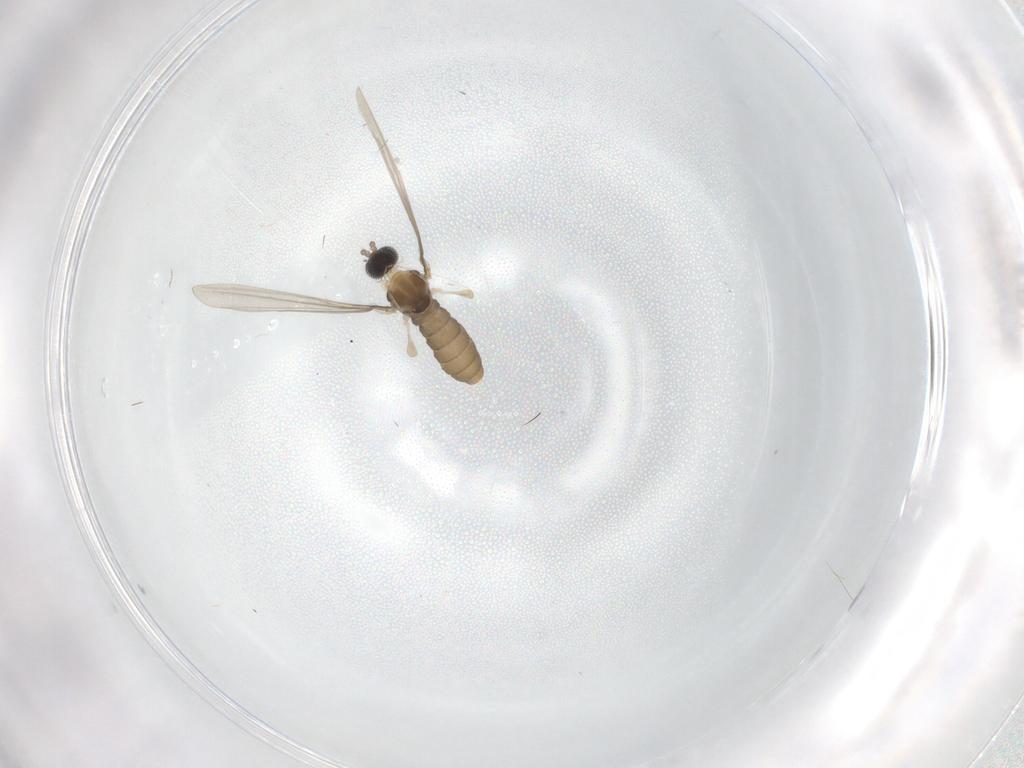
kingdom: Animalia
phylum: Arthropoda
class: Insecta
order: Diptera
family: Cecidomyiidae
